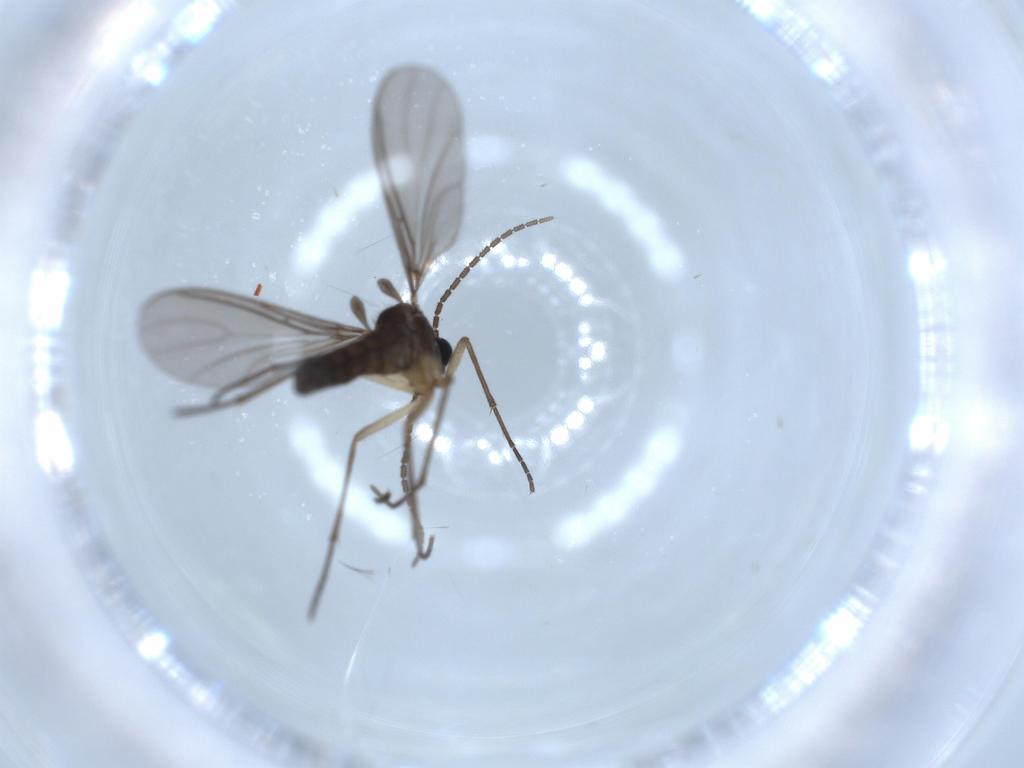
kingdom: Animalia
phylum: Arthropoda
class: Insecta
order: Diptera
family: Sciaridae
